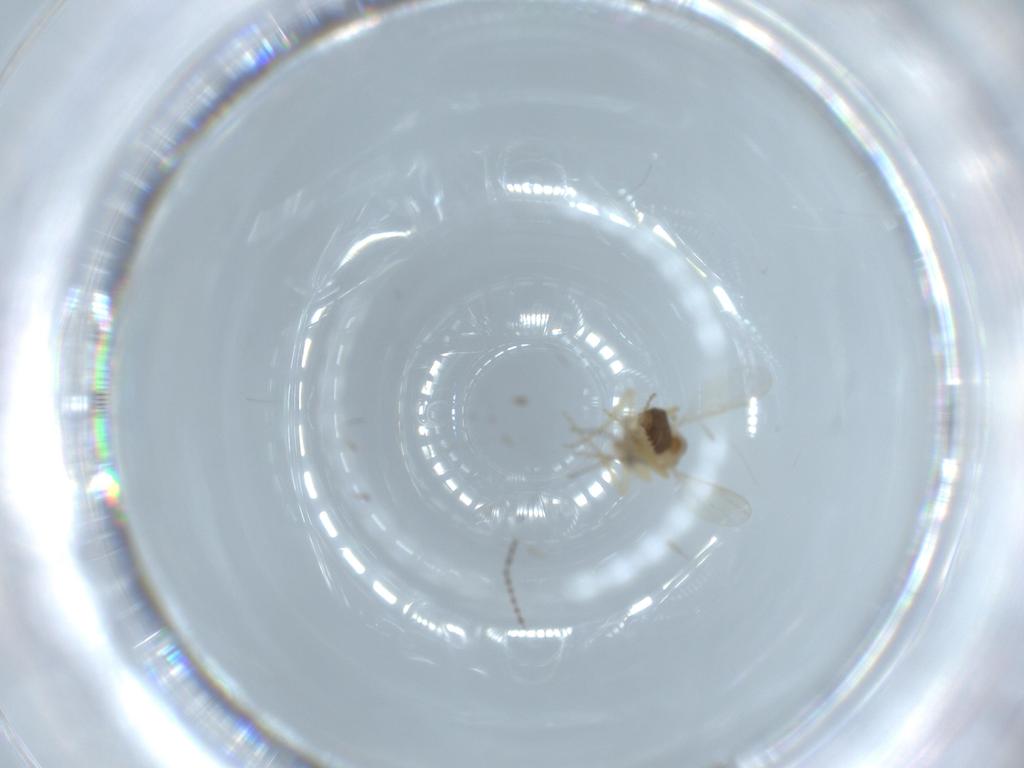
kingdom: Animalia
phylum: Arthropoda
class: Insecta
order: Diptera
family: Ceratopogonidae
